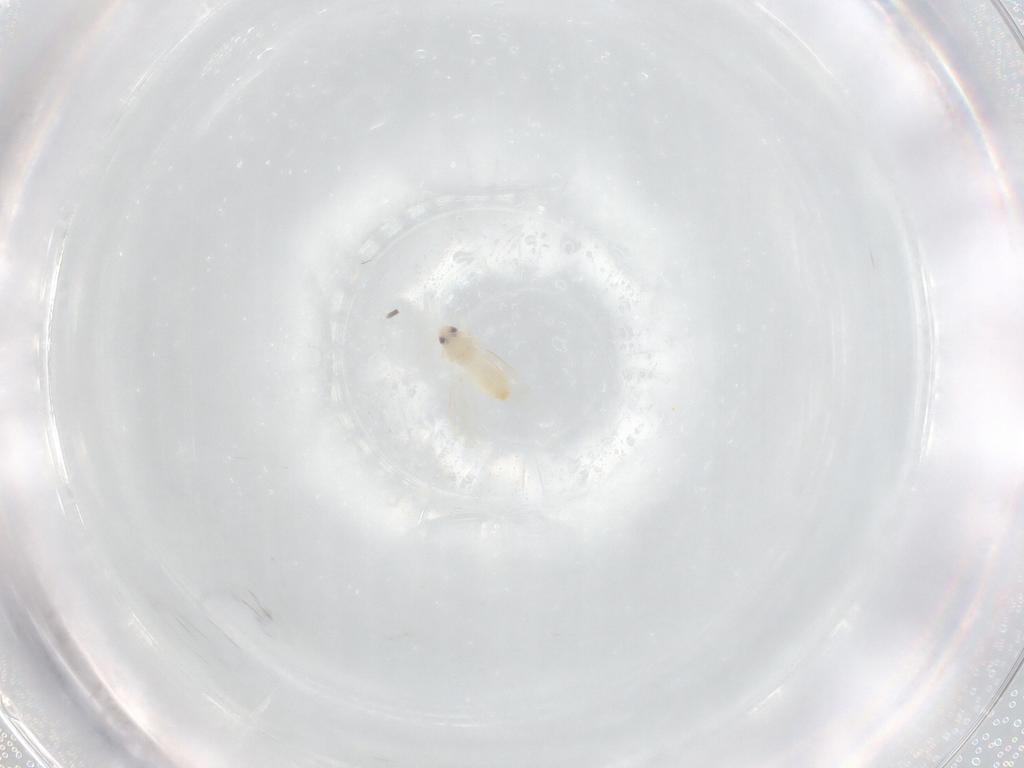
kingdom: Animalia
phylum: Arthropoda
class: Insecta
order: Hemiptera
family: Aleyrodidae
